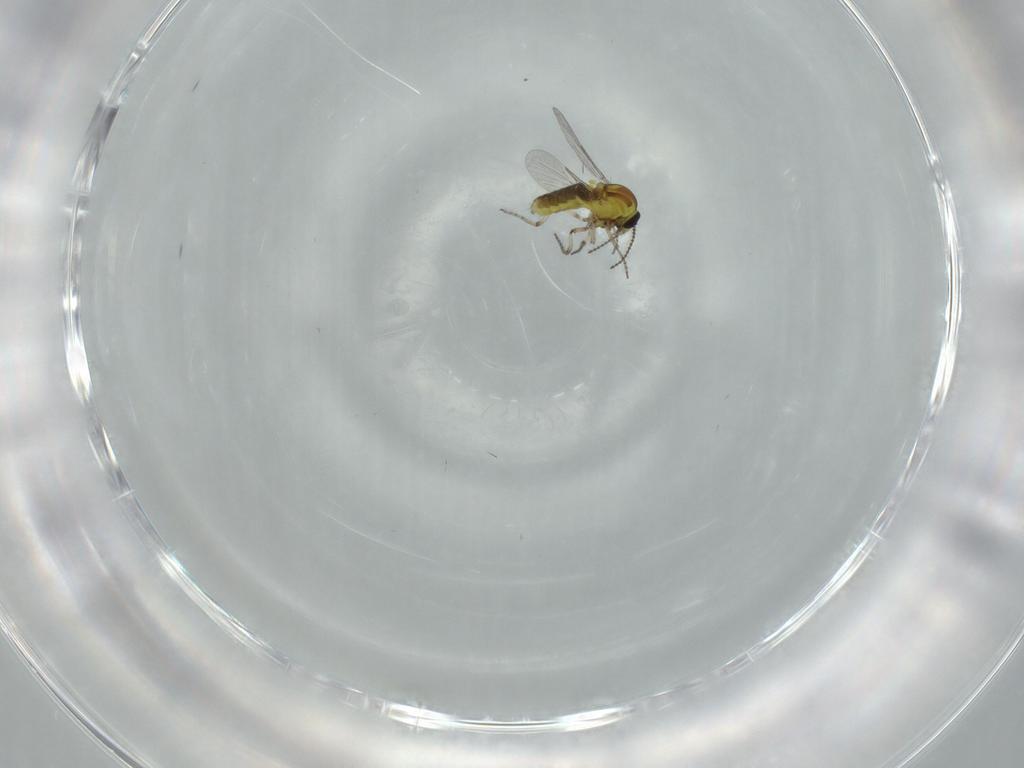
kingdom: Animalia
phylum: Arthropoda
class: Insecta
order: Diptera
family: Ceratopogonidae
